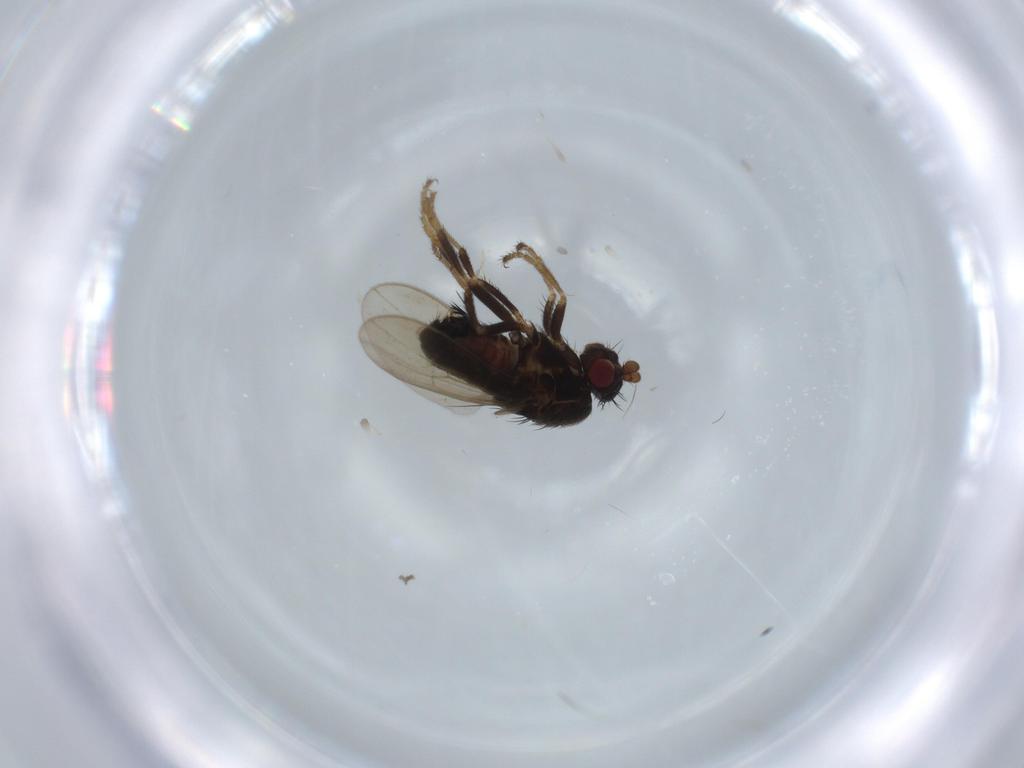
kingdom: Animalia
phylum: Arthropoda
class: Insecta
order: Diptera
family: Sphaeroceridae
